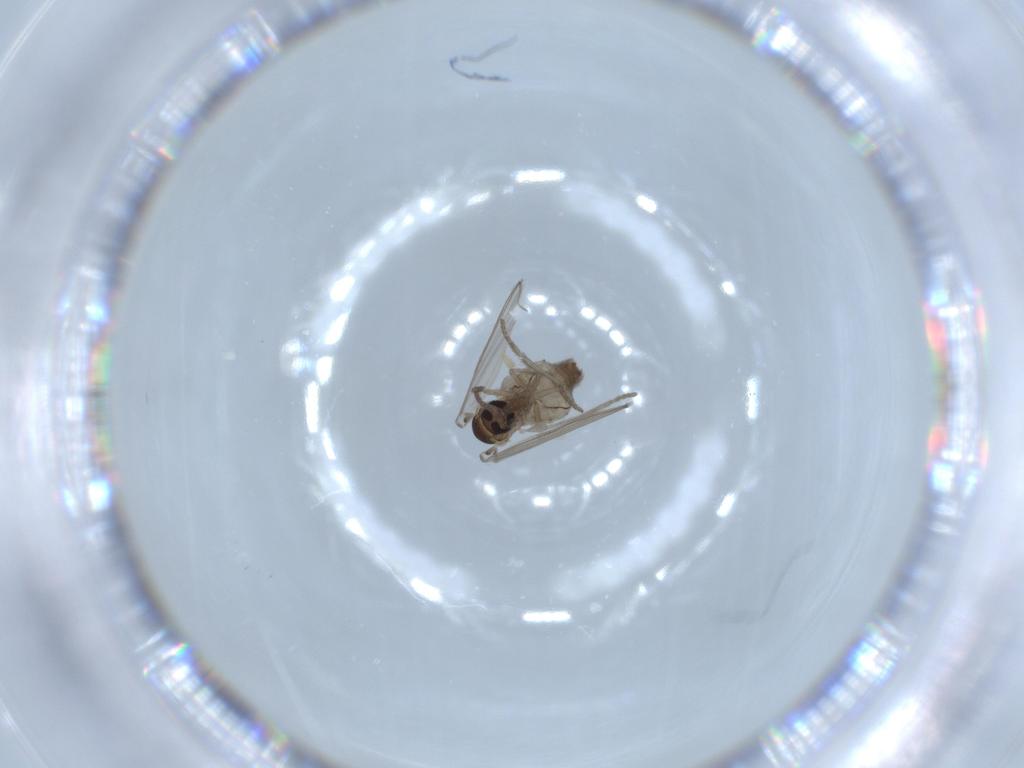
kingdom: Animalia
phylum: Arthropoda
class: Insecta
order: Diptera
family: Psychodidae
